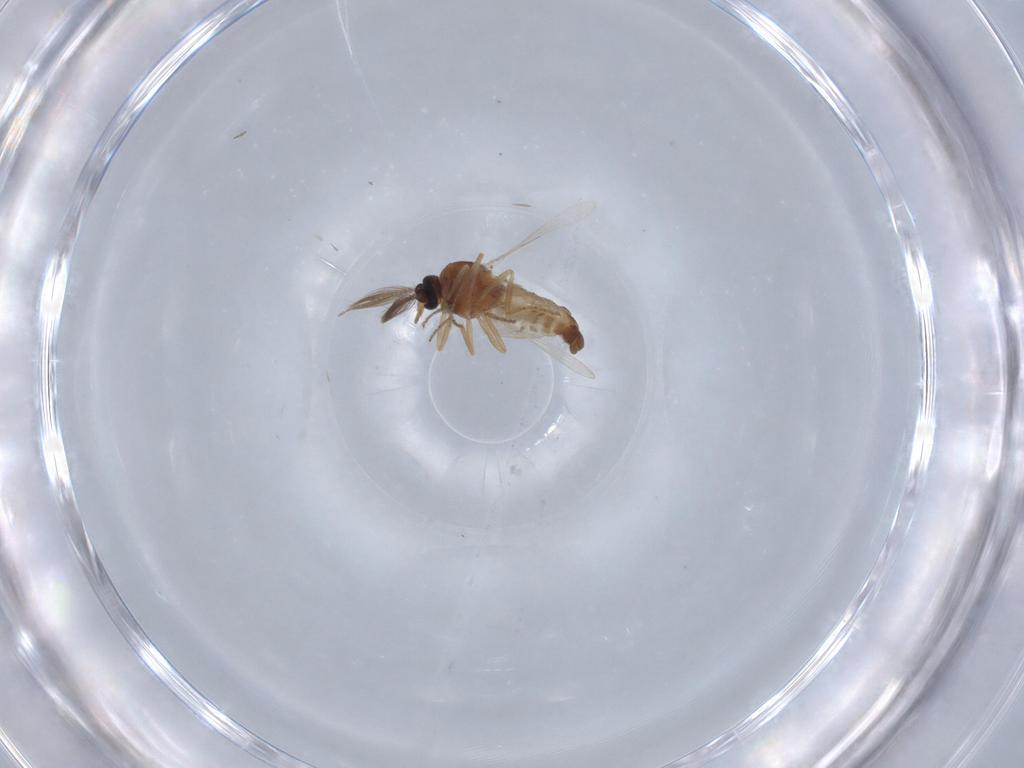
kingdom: Animalia
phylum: Arthropoda
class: Insecta
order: Diptera
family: Ceratopogonidae
